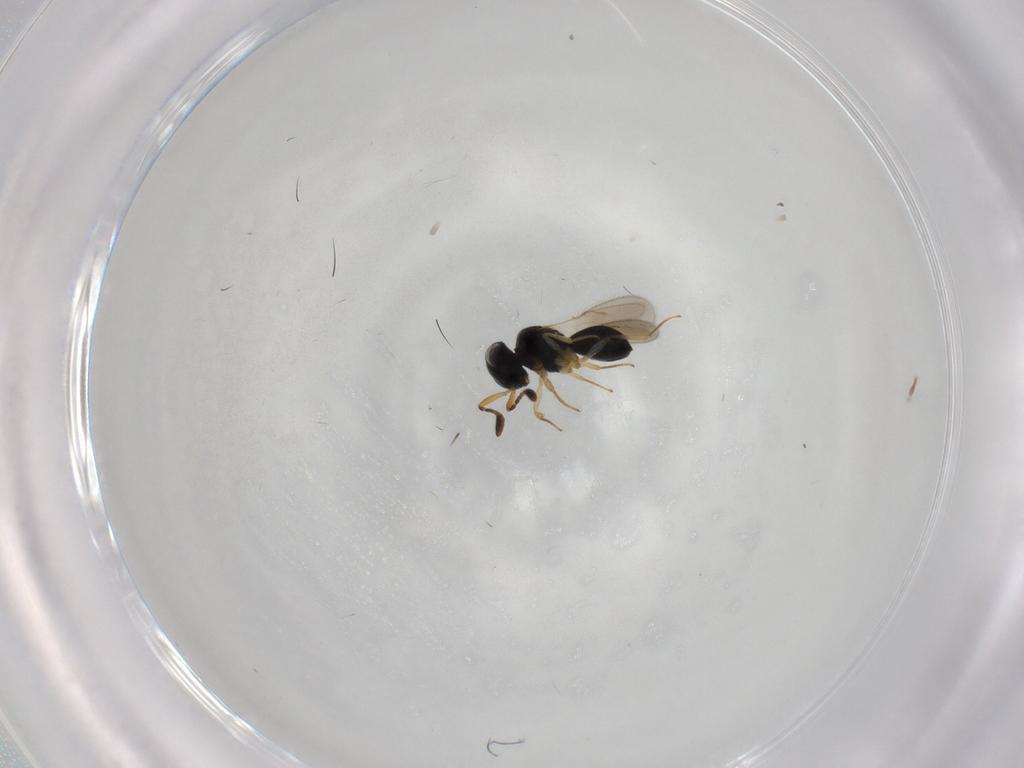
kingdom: Animalia
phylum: Arthropoda
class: Insecta
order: Hymenoptera
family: Scelionidae
